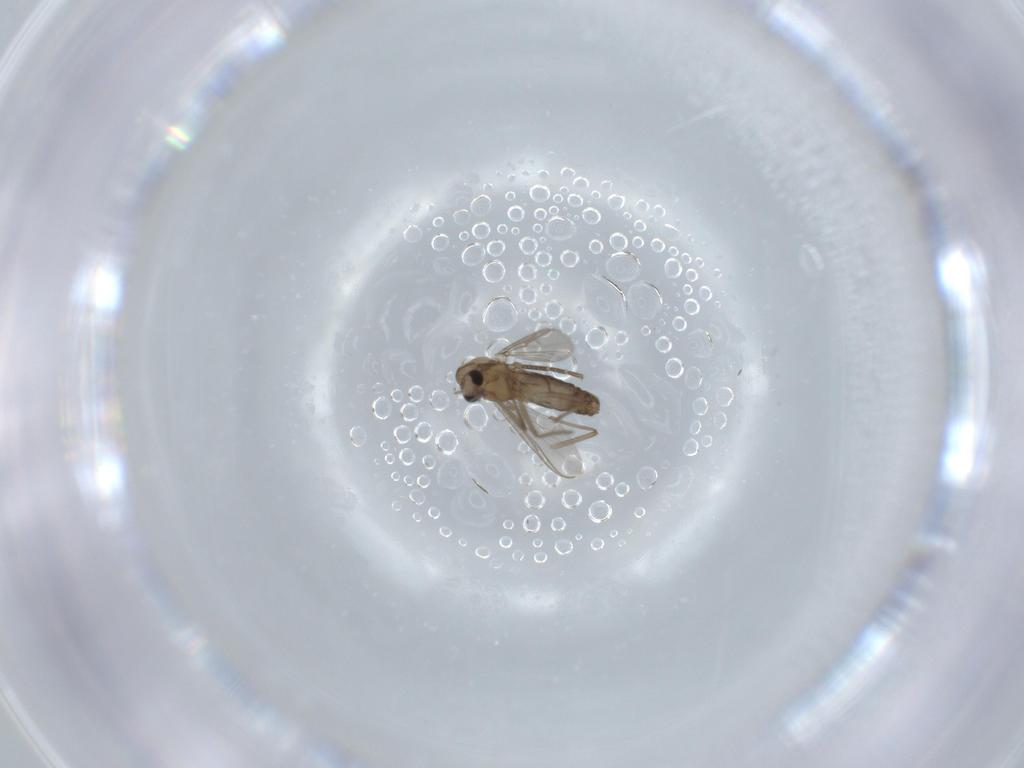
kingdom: Animalia
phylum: Arthropoda
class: Insecta
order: Diptera
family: Chironomidae
